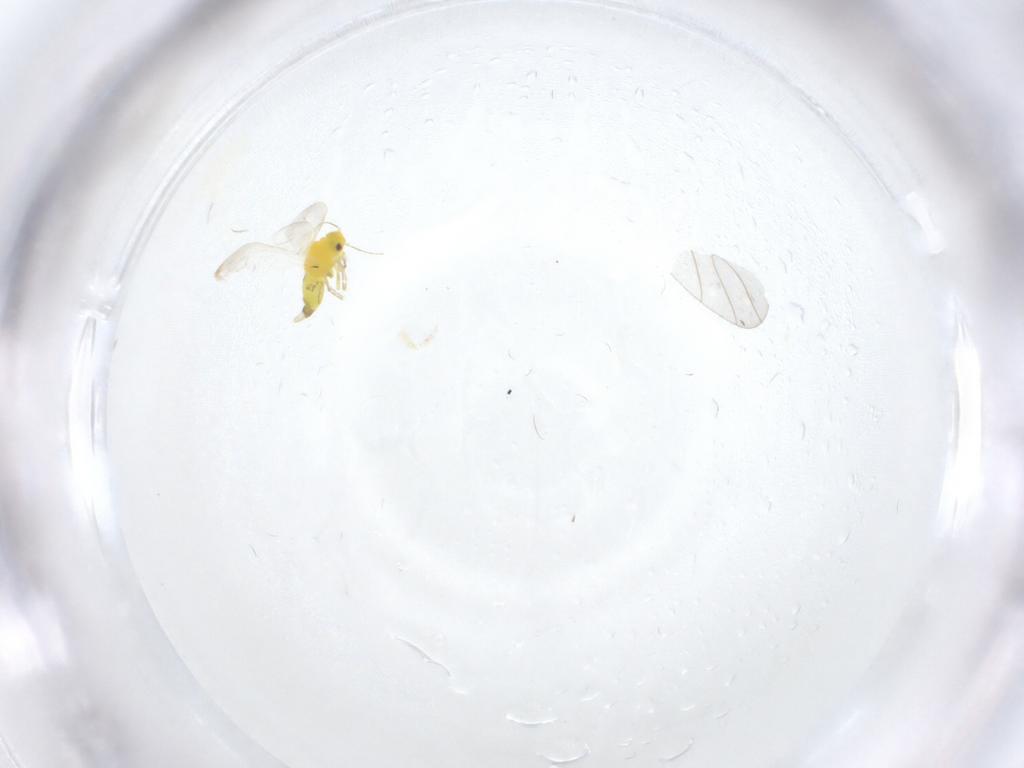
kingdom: Animalia
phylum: Arthropoda
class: Insecta
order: Hemiptera
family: Aleyrodidae
